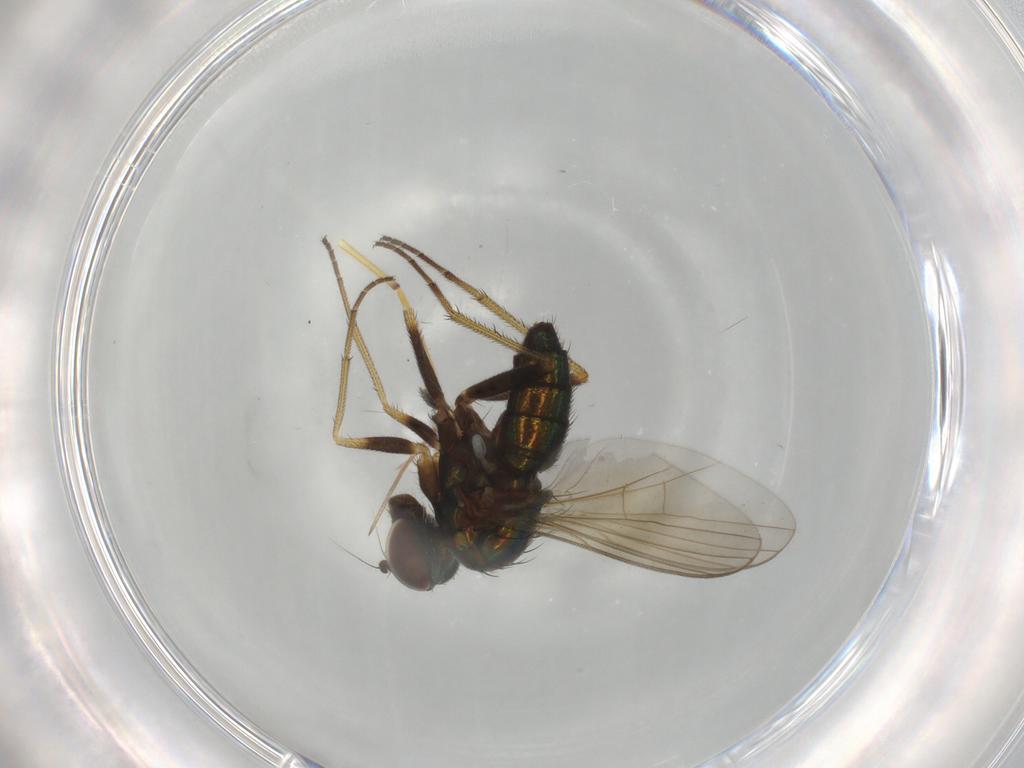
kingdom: Animalia
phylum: Arthropoda
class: Insecta
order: Diptera
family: Dolichopodidae
